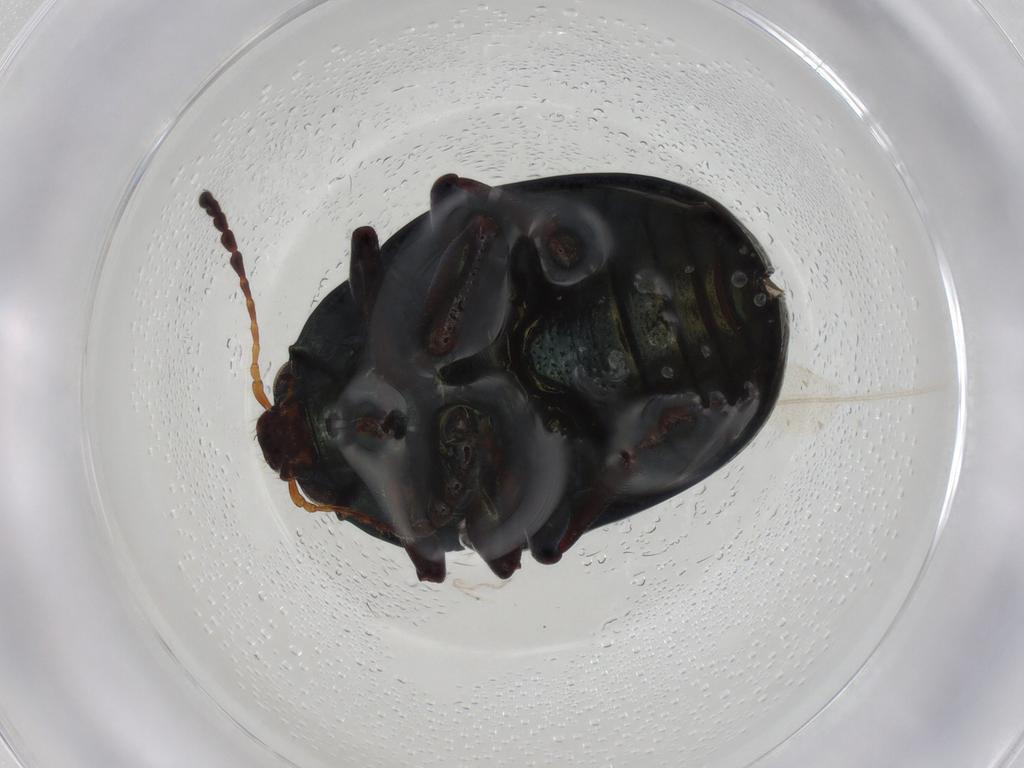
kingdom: Animalia
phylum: Arthropoda
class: Insecta
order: Coleoptera
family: Chrysomelidae
